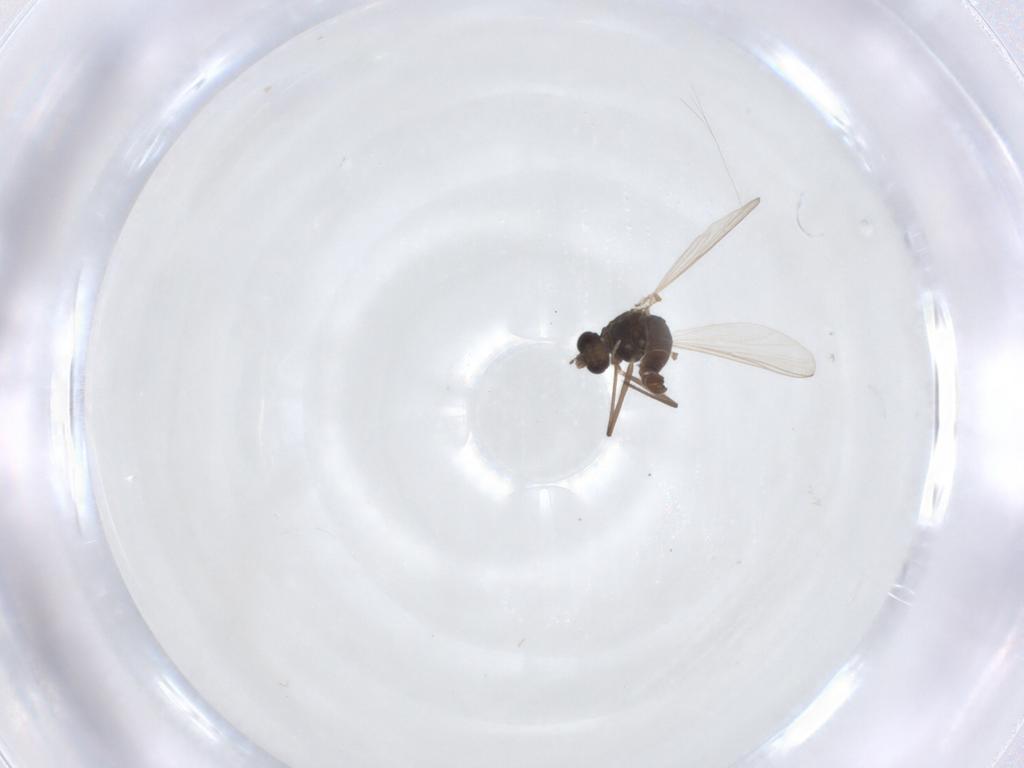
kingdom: Animalia
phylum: Arthropoda
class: Insecta
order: Diptera
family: Chironomidae
